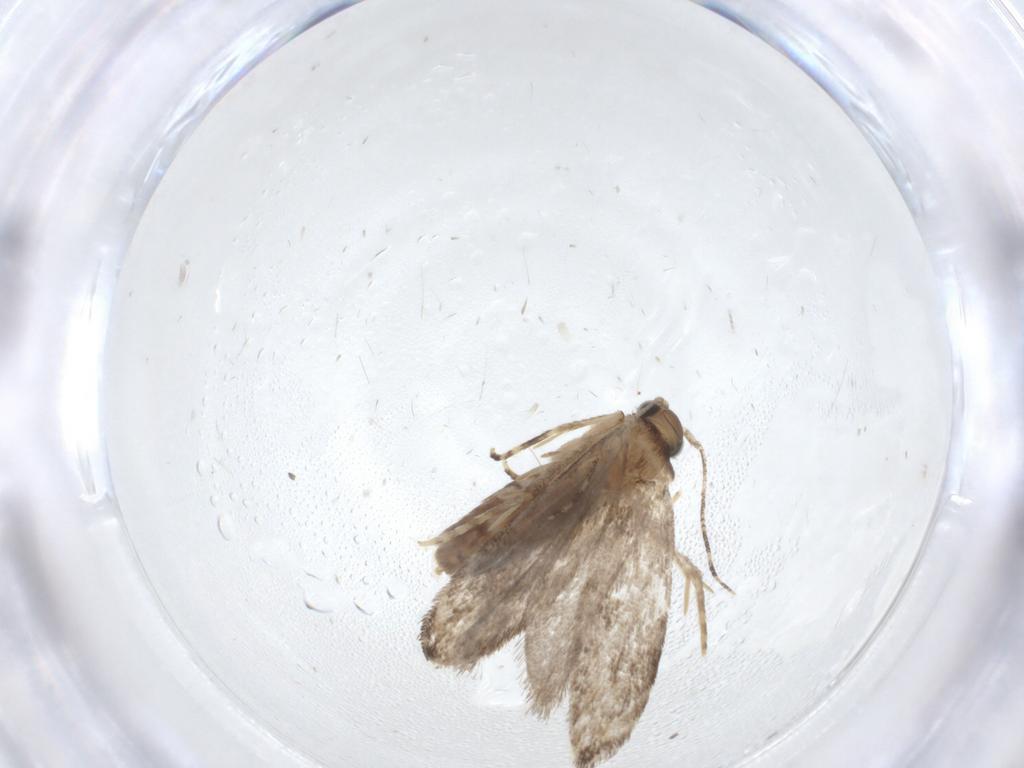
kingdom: Animalia
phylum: Arthropoda
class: Insecta
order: Lepidoptera
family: Tineidae
